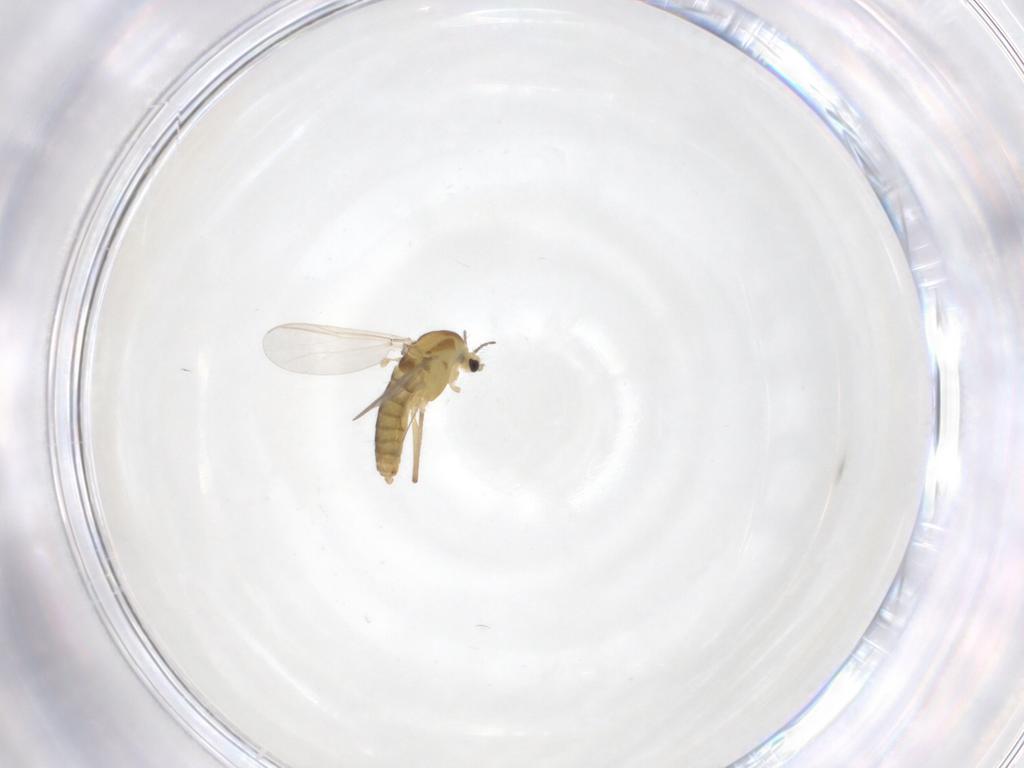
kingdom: Animalia
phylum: Arthropoda
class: Insecta
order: Diptera
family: Chironomidae
